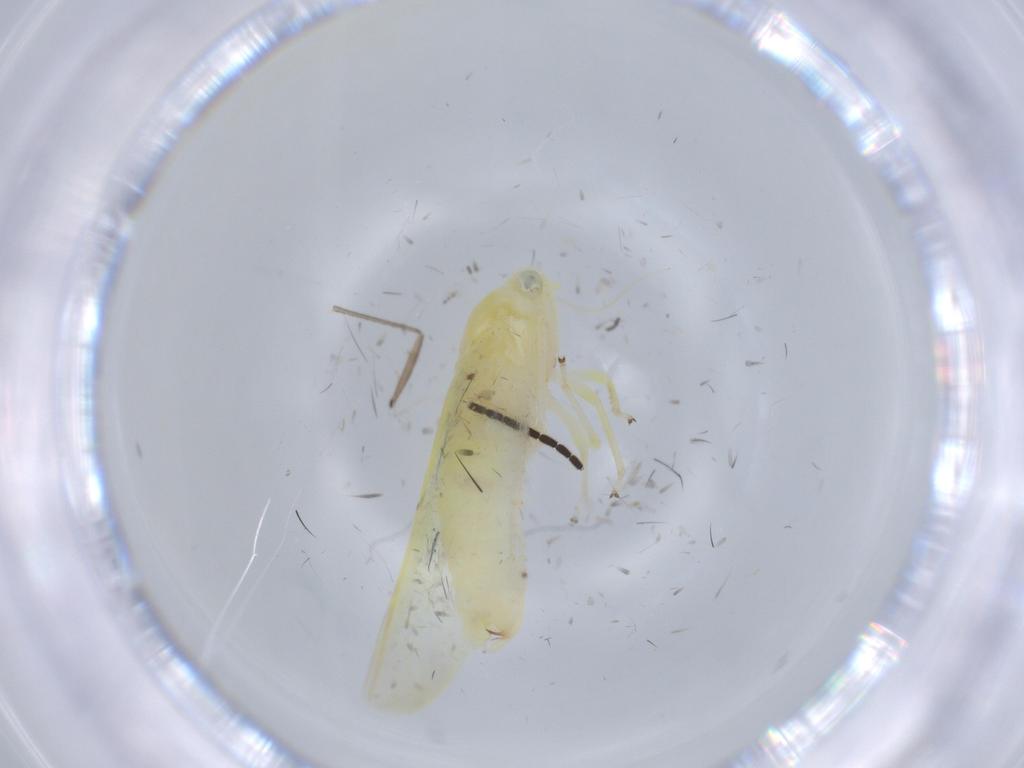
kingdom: Animalia
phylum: Arthropoda
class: Insecta
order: Hemiptera
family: Cicadellidae
